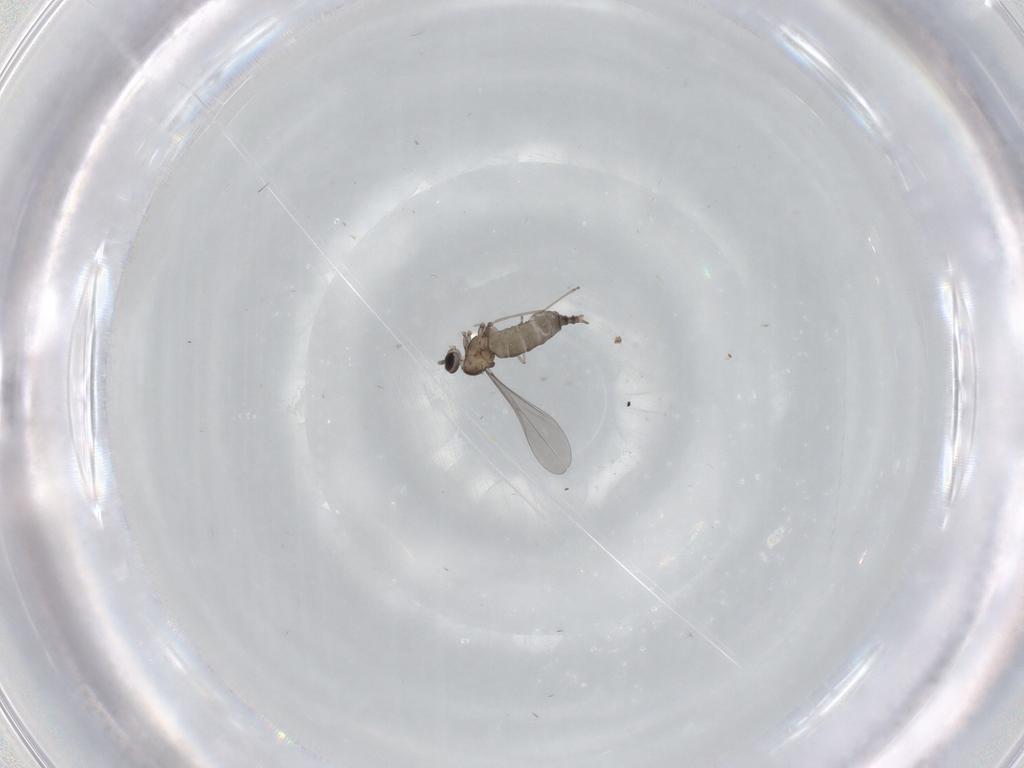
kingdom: Animalia
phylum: Arthropoda
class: Insecta
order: Diptera
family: Cecidomyiidae
